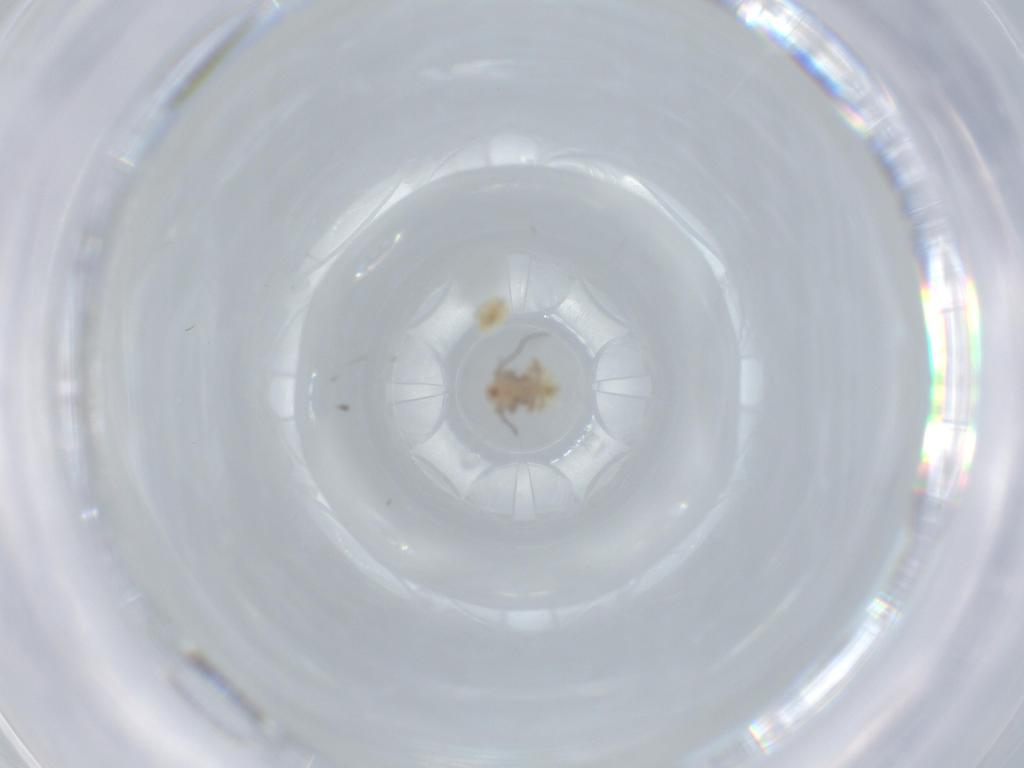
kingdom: Animalia
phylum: Arthropoda
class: Insecta
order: Psocodea
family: Lepidopsocidae
